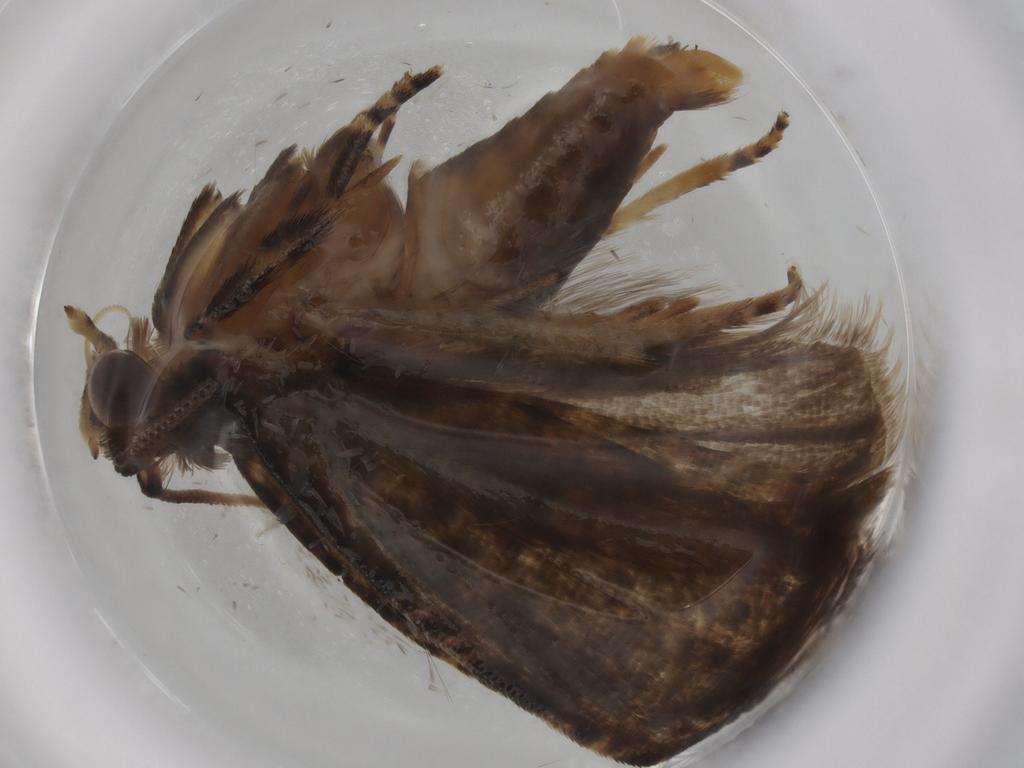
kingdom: Animalia
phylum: Arthropoda
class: Insecta
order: Lepidoptera
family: Tortricidae
